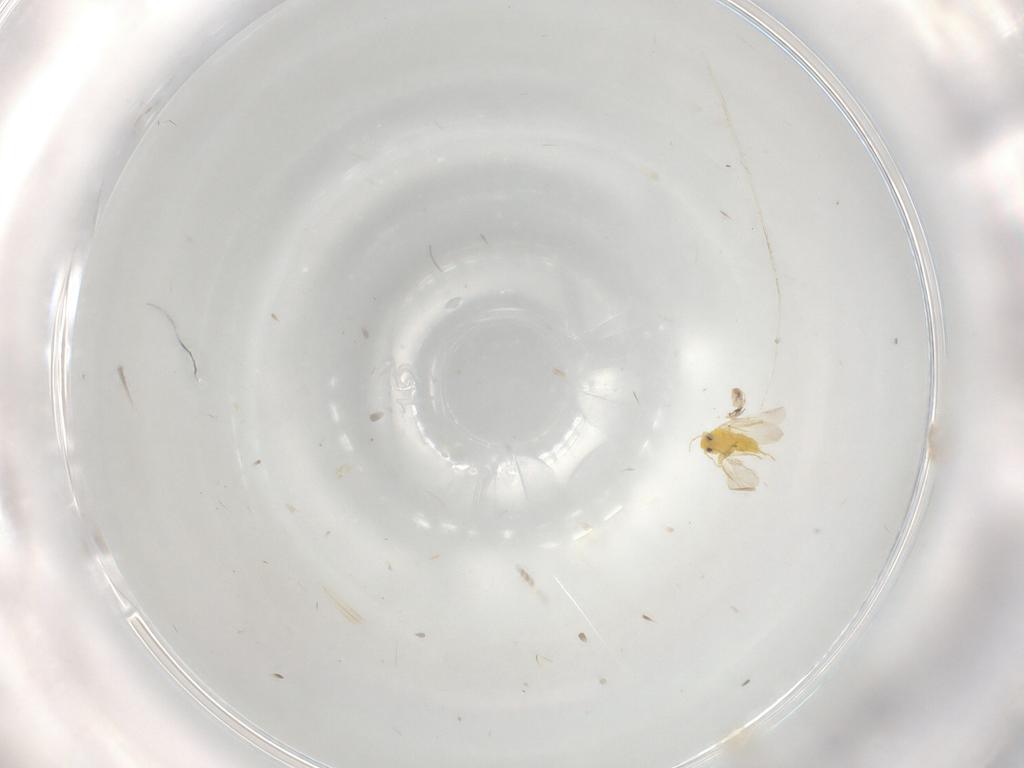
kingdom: Animalia
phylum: Arthropoda
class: Insecta
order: Hemiptera
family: Aleyrodidae
